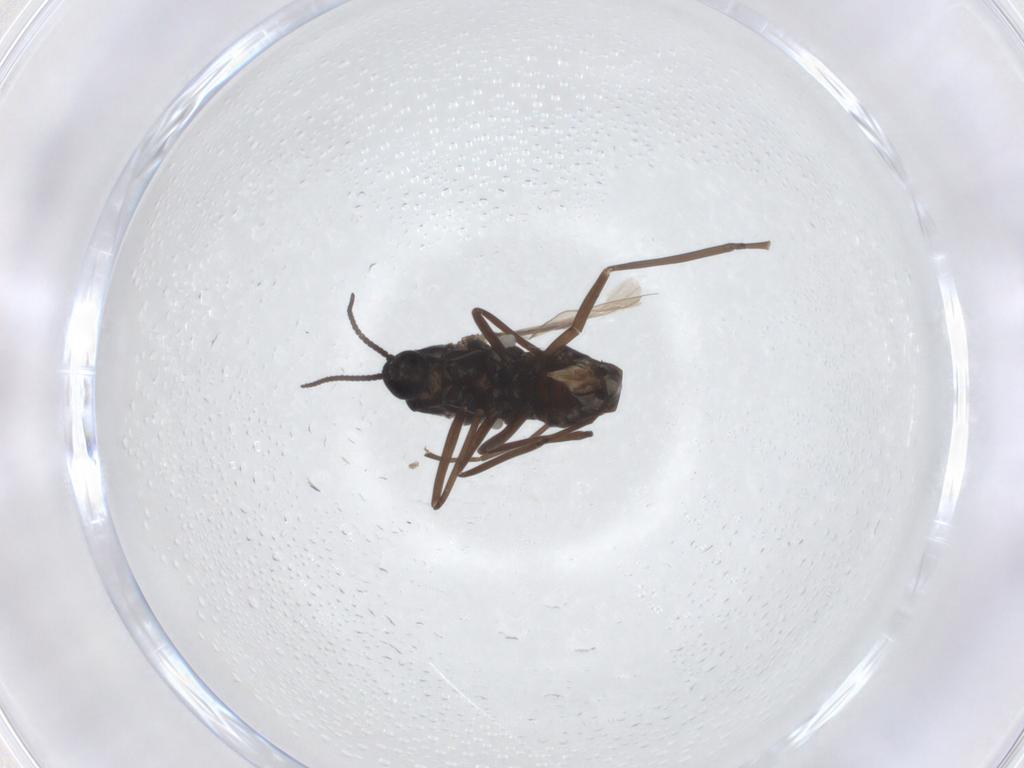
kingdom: Animalia
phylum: Arthropoda
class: Insecta
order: Diptera
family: Cecidomyiidae
